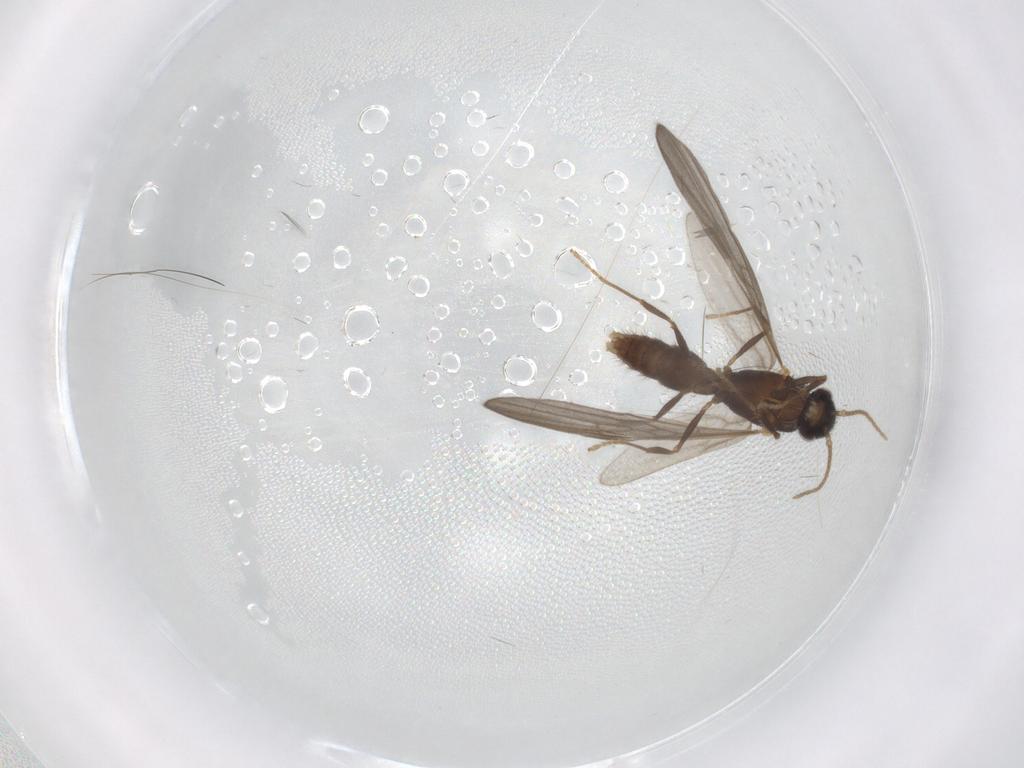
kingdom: Animalia
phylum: Arthropoda
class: Insecta
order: Hymenoptera
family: Formicidae
